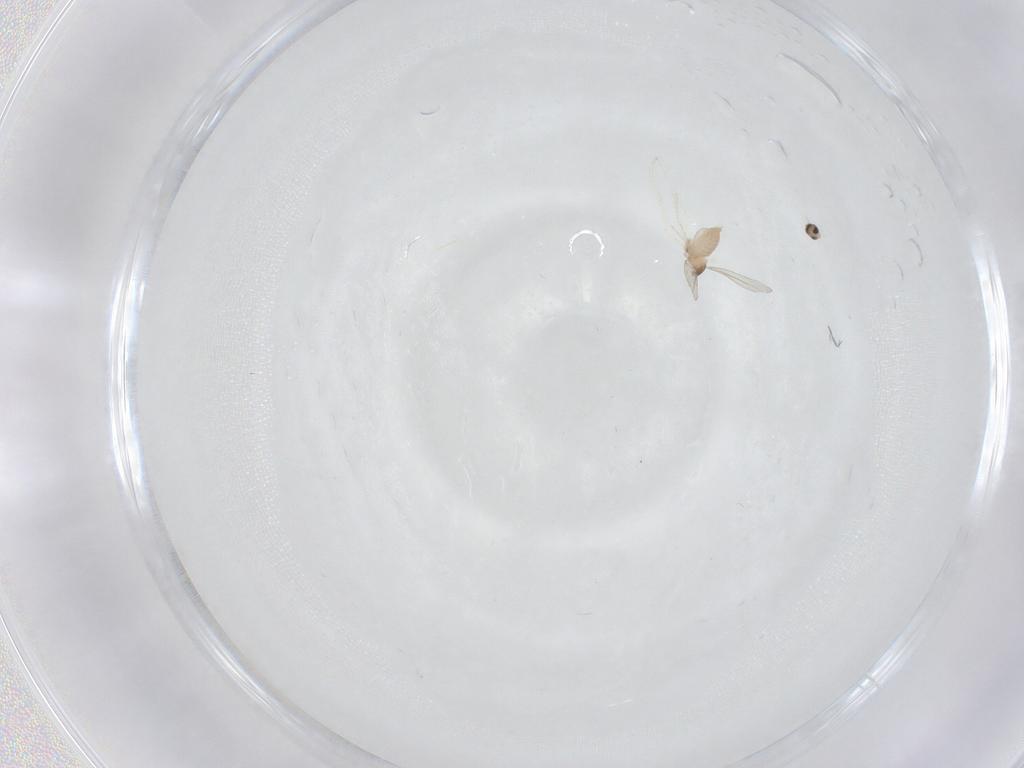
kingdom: Animalia
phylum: Arthropoda
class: Insecta
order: Diptera
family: Cecidomyiidae
